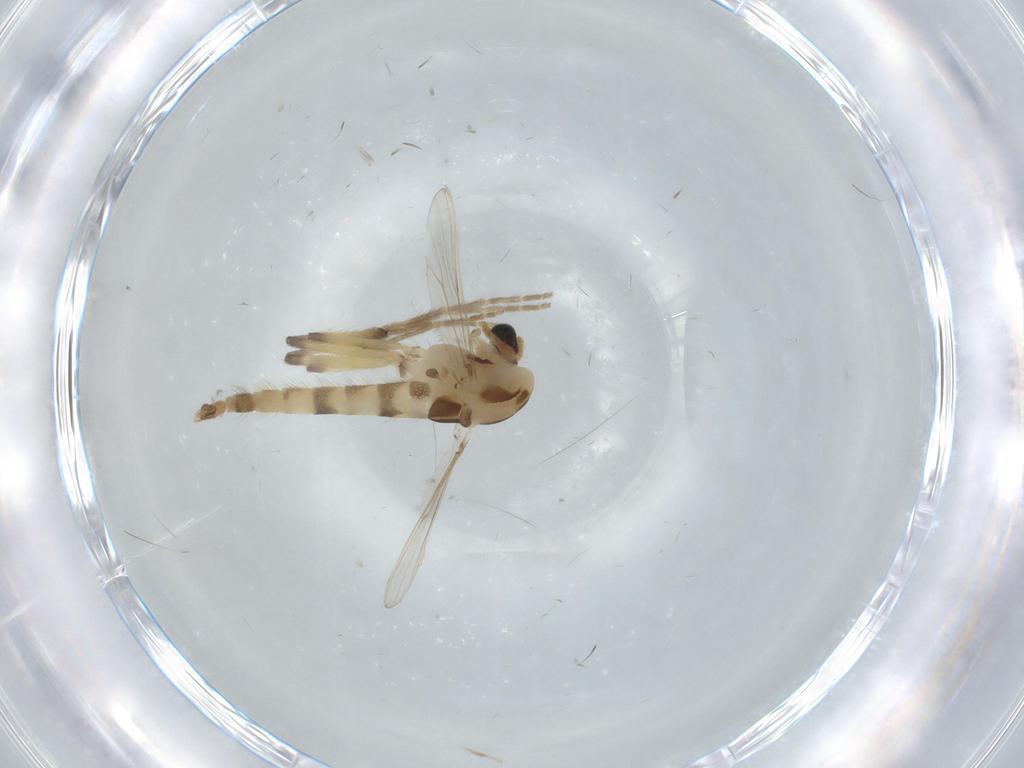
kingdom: Animalia
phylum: Arthropoda
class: Insecta
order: Diptera
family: Chironomidae
